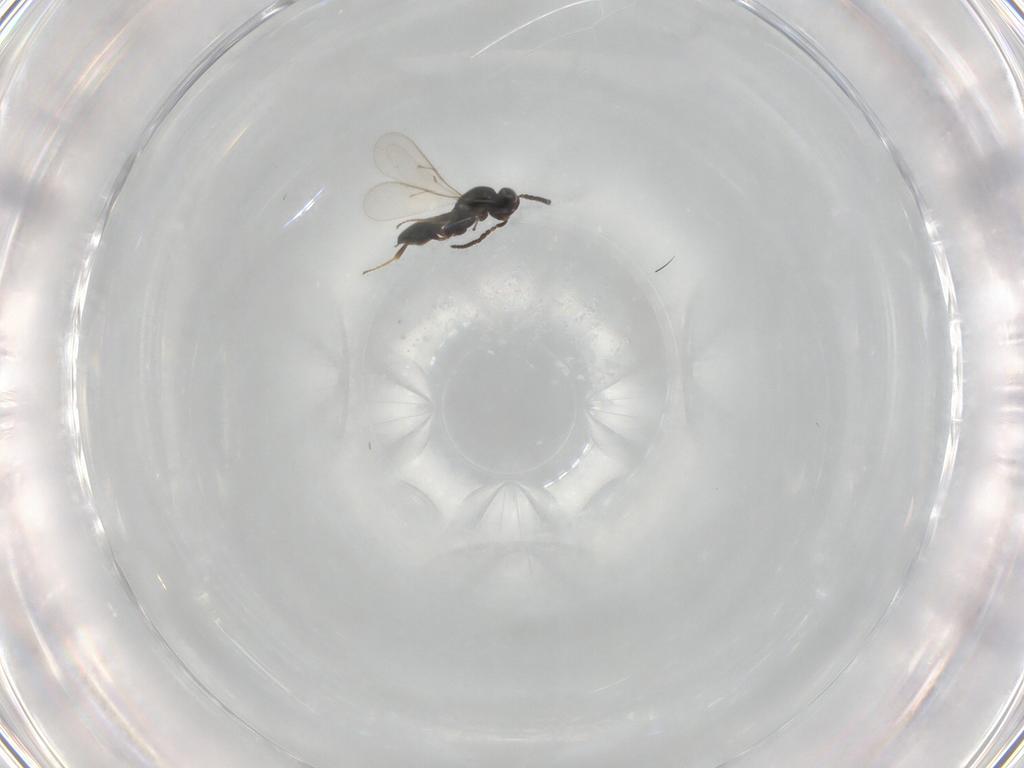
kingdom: Animalia
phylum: Arthropoda
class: Insecta
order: Hymenoptera
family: Scelionidae
